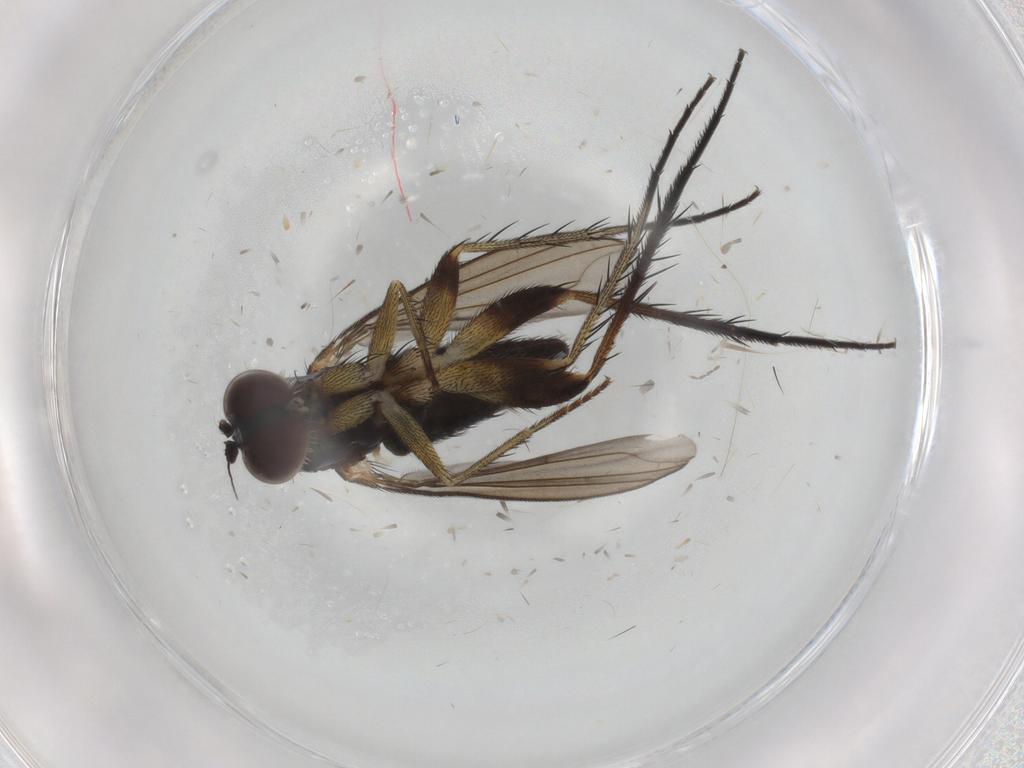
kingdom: Animalia
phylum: Arthropoda
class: Insecta
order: Diptera
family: Dolichopodidae
